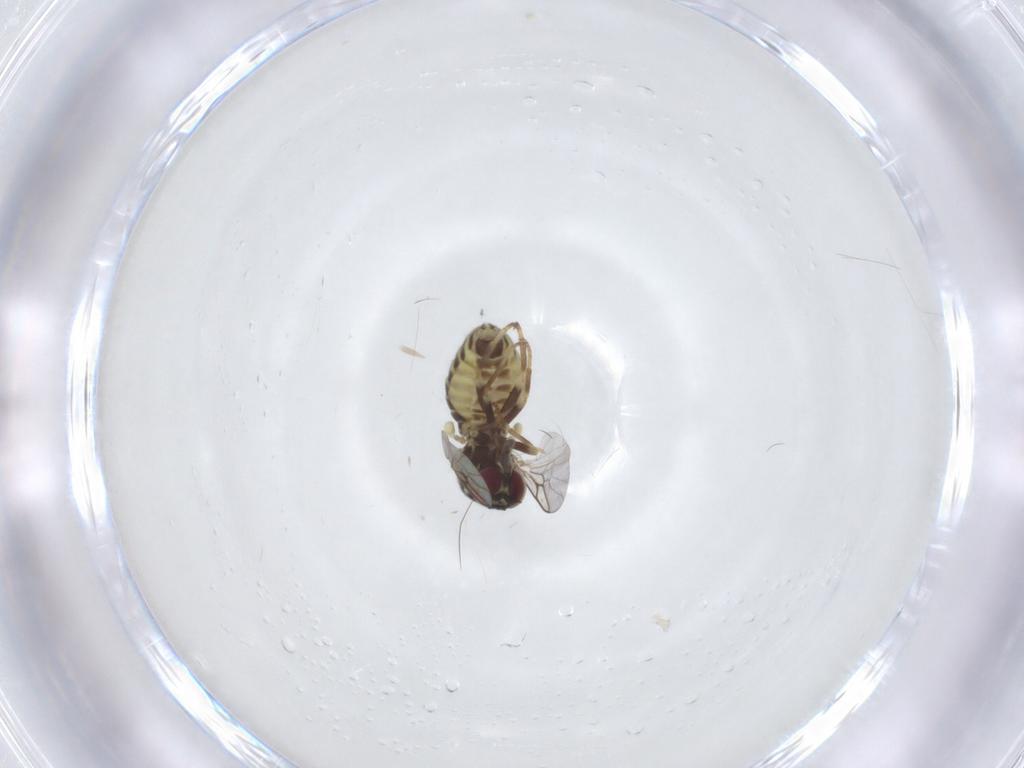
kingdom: Animalia
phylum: Arthropoda
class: Insecta
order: Diptera
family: Mythicomyiidae
